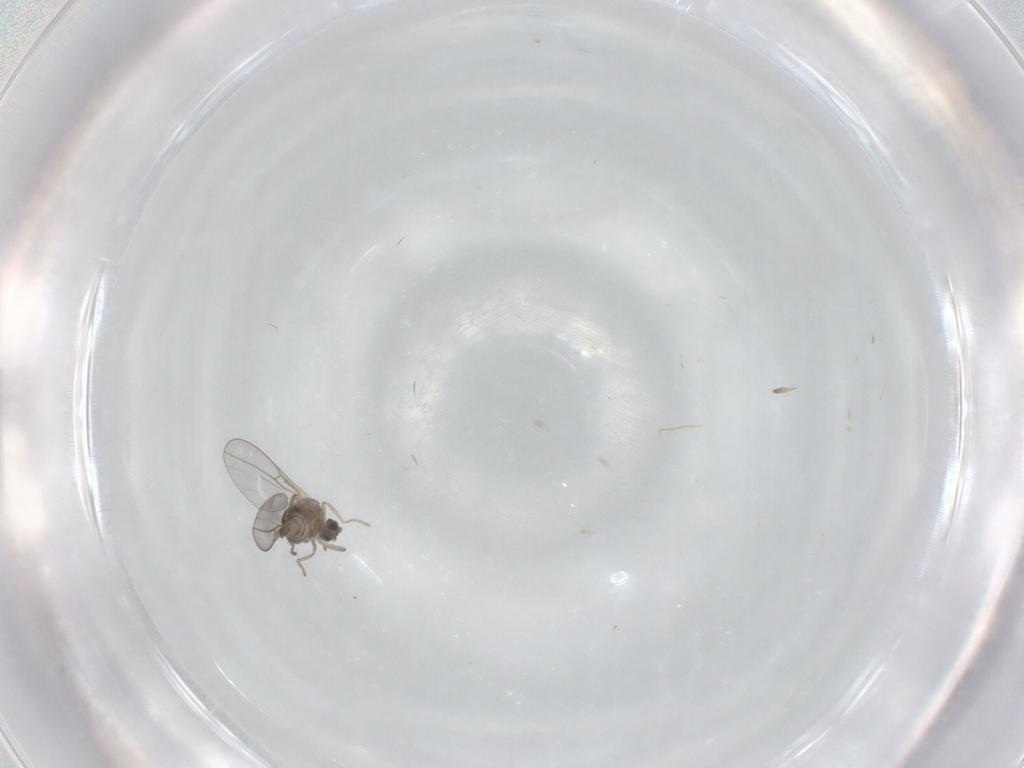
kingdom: Animalia
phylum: Arthropoda
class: Insecta
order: Diptera
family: Cecidomyiidae
